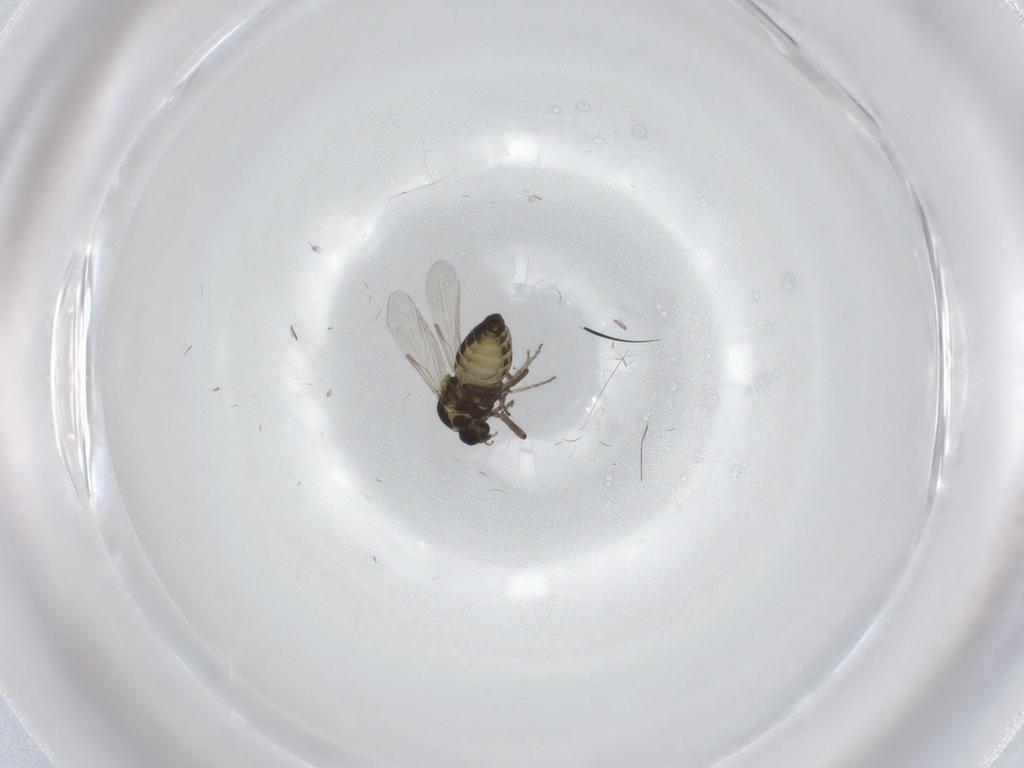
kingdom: Animalia
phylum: Arthropoda
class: Insecta
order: Diptera
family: Ceratopogonidae
